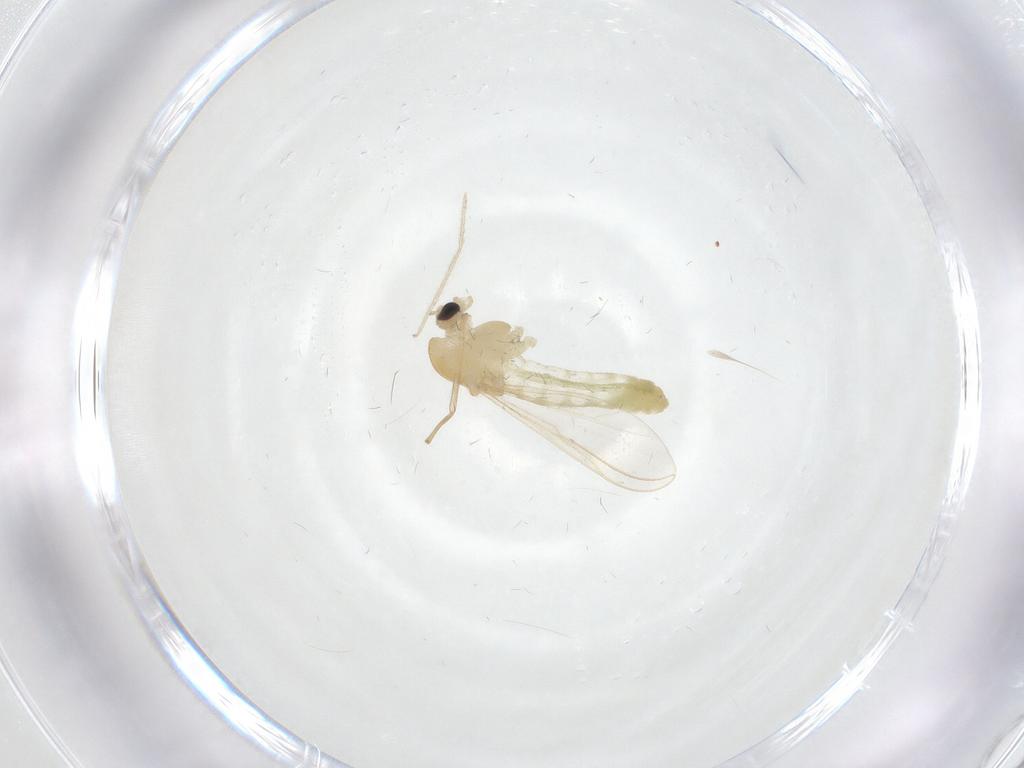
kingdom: Animalia
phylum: Arthropoda
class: Insecta
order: Diptera
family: Chironomidae
